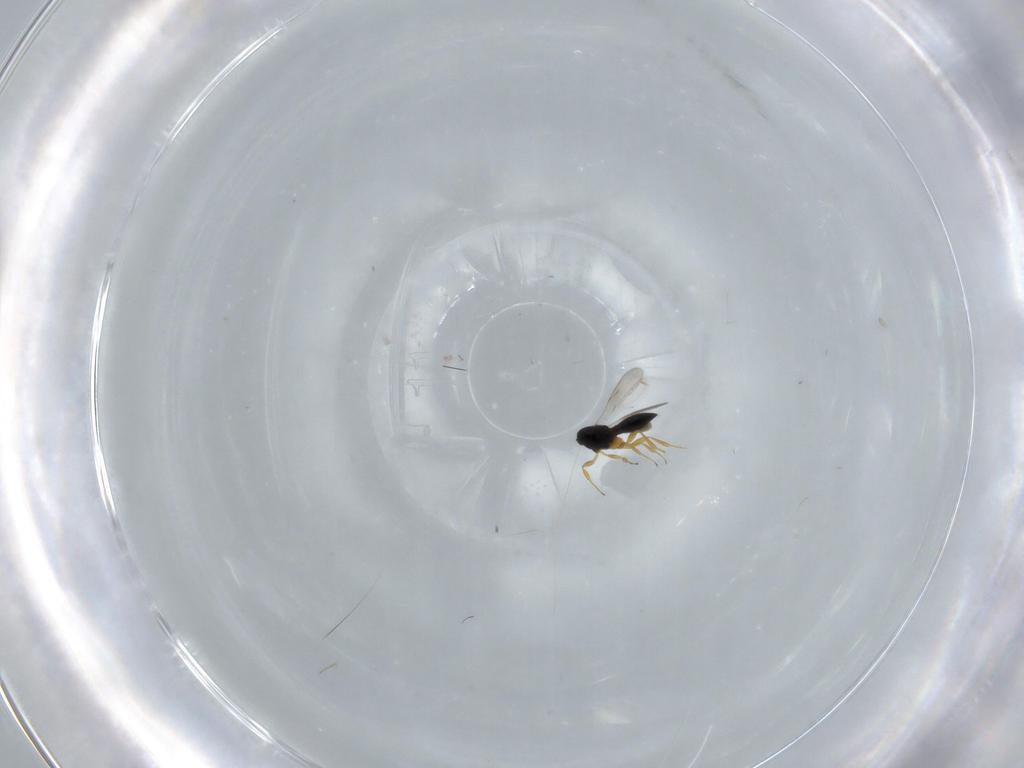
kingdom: Animalia
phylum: Arthropoda
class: Insecta
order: Hymenoptera
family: Scelionidae
